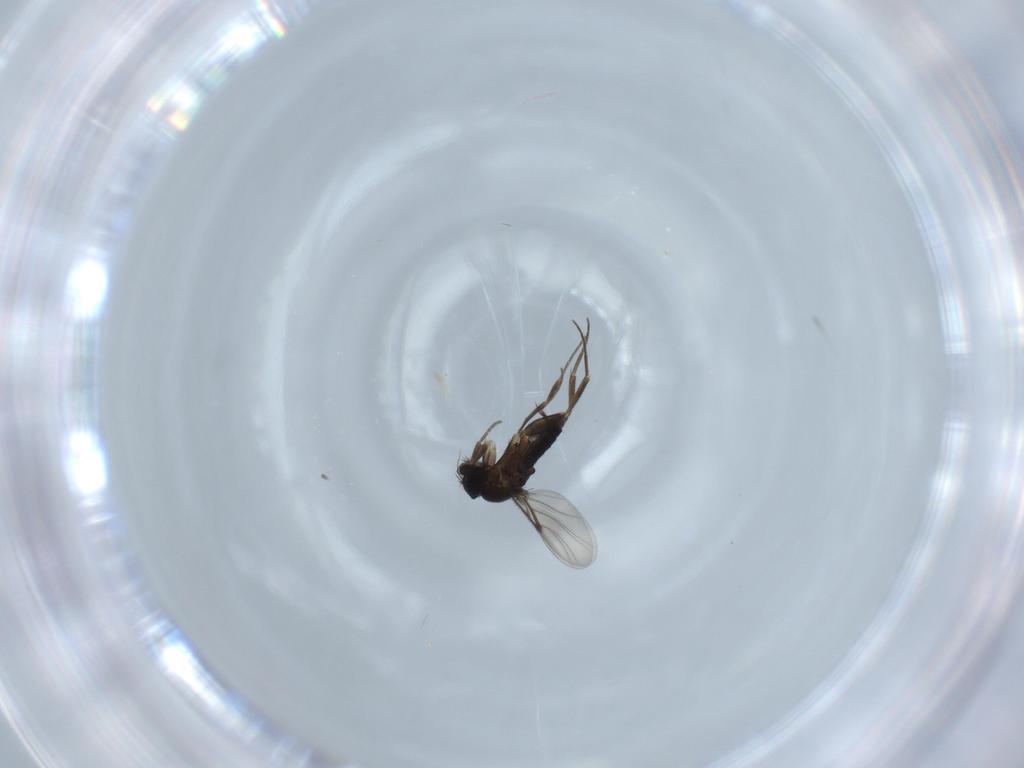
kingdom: Animalia
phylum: Arthropoda
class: Insecta
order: Diptera
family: Phoridae
